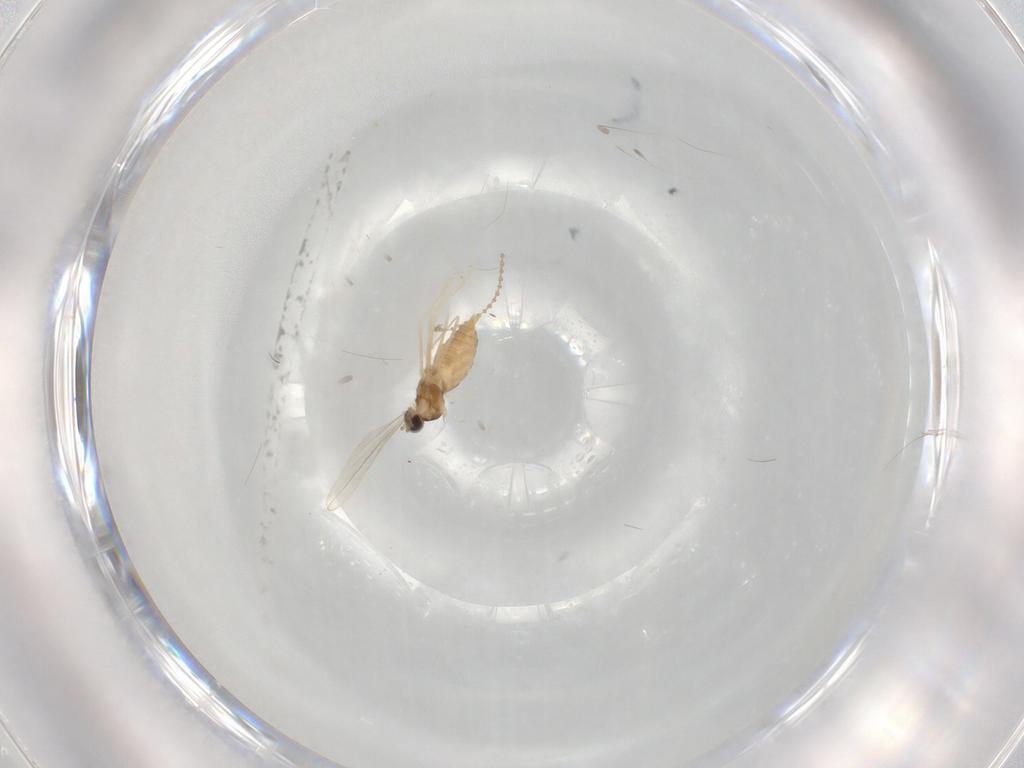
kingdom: Animalia
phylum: Arthropoda
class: Insecta
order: Diptera
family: Cecidomyiidae
